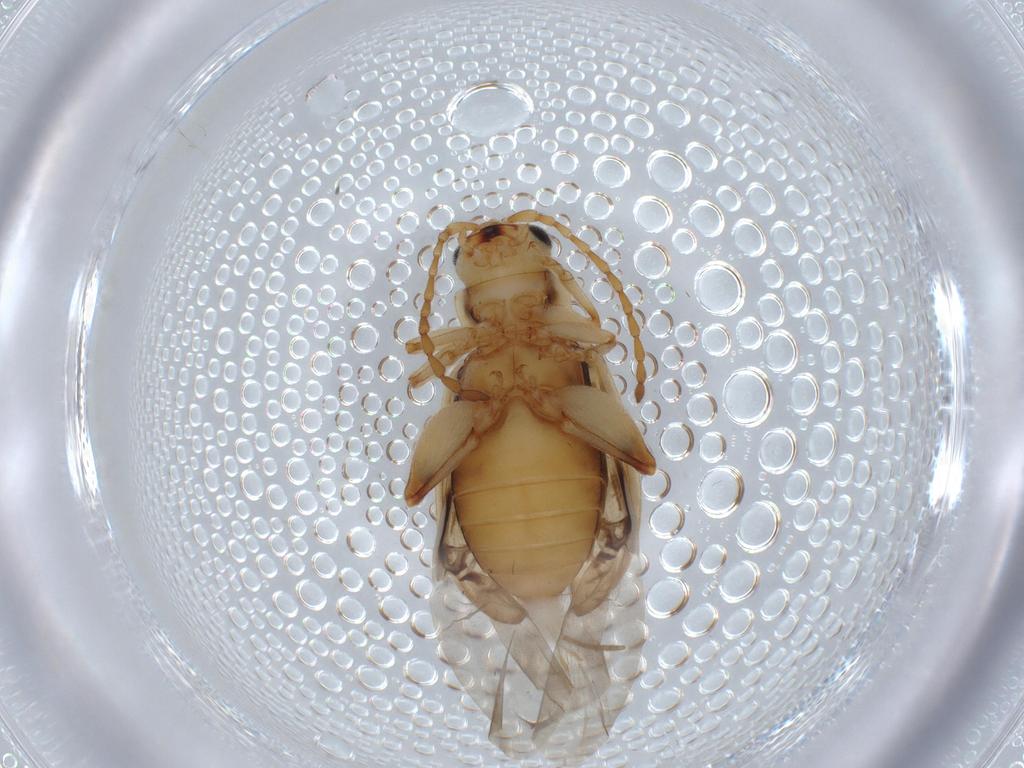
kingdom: Animalia
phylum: Arthropoda
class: Insecta
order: Coleoptera
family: Chrysomelidae
